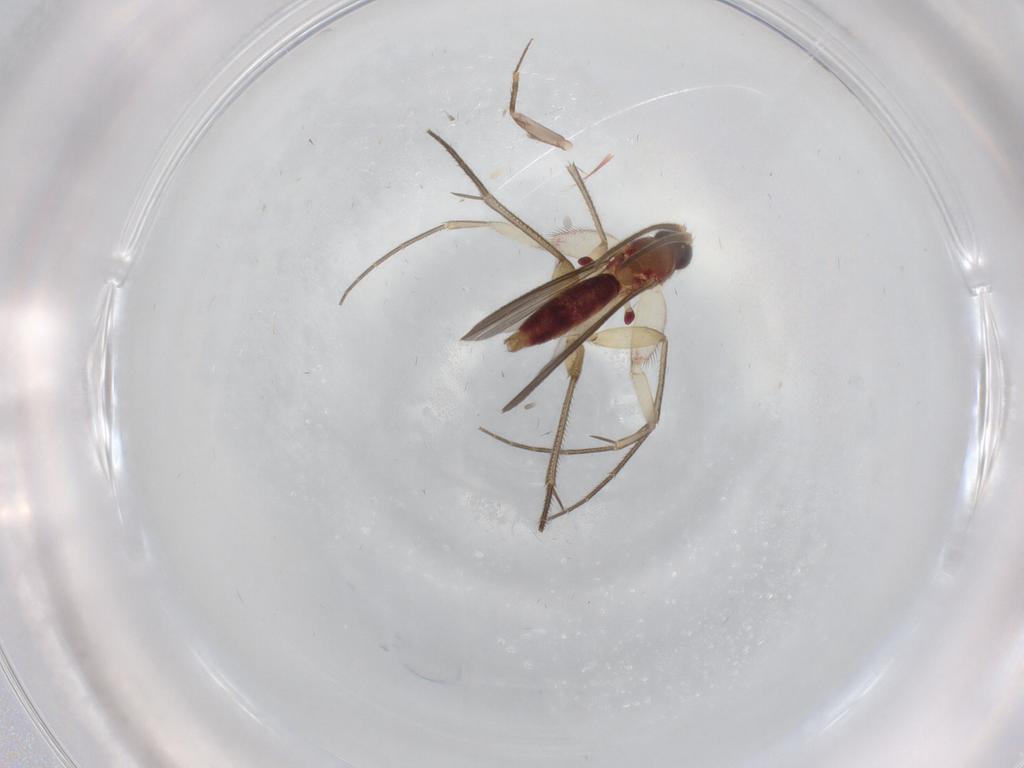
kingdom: Animalia
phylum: Arthropoda
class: Insecta
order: Diptera
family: Mycetophilidae
